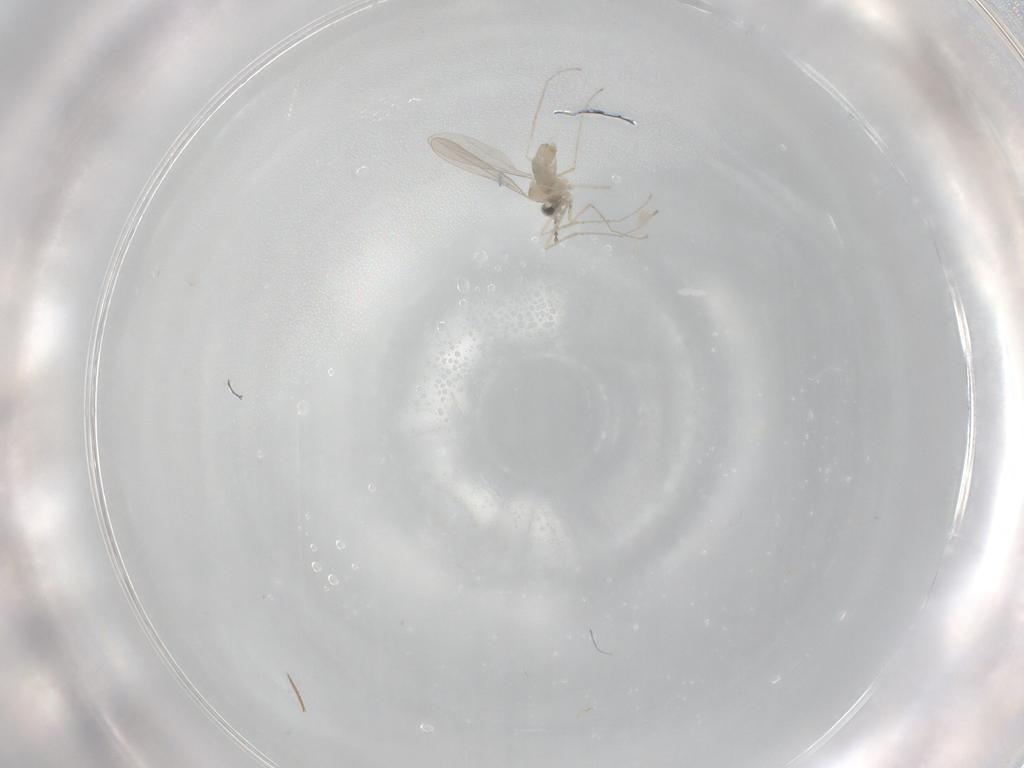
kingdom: Animalia
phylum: Arthropoda
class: Insecta
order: Diptera
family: Cecidomyiidae
